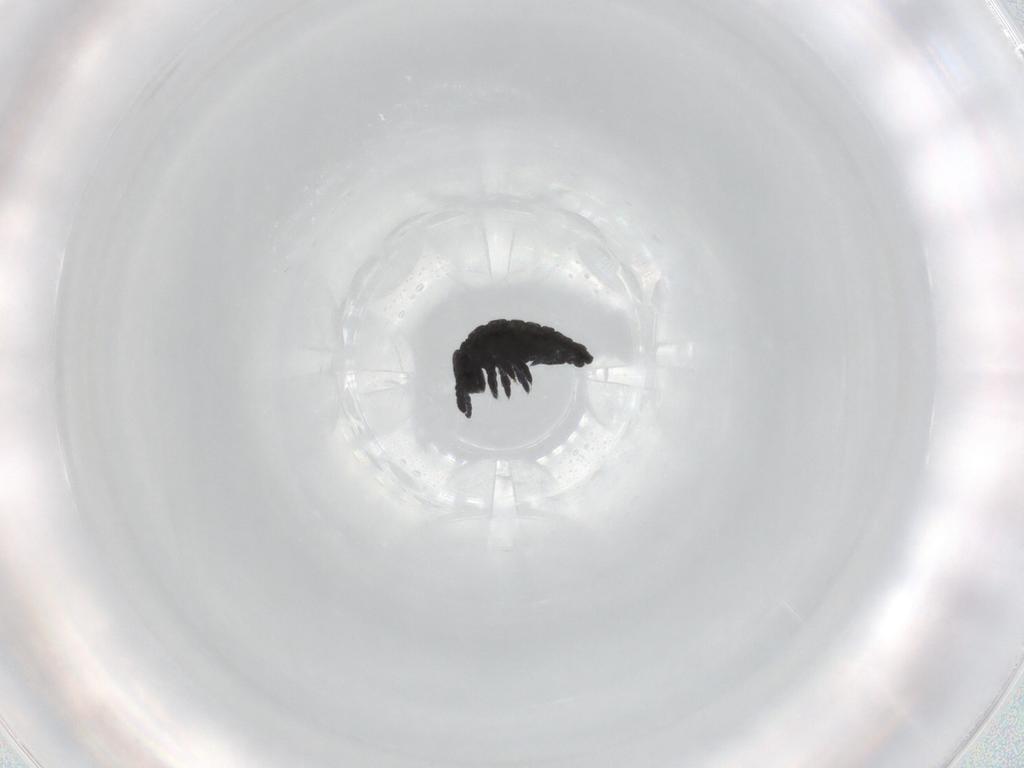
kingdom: Animalia
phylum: Arthropoda
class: Collembola
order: Poduromorpha
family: Hypogastruridae
